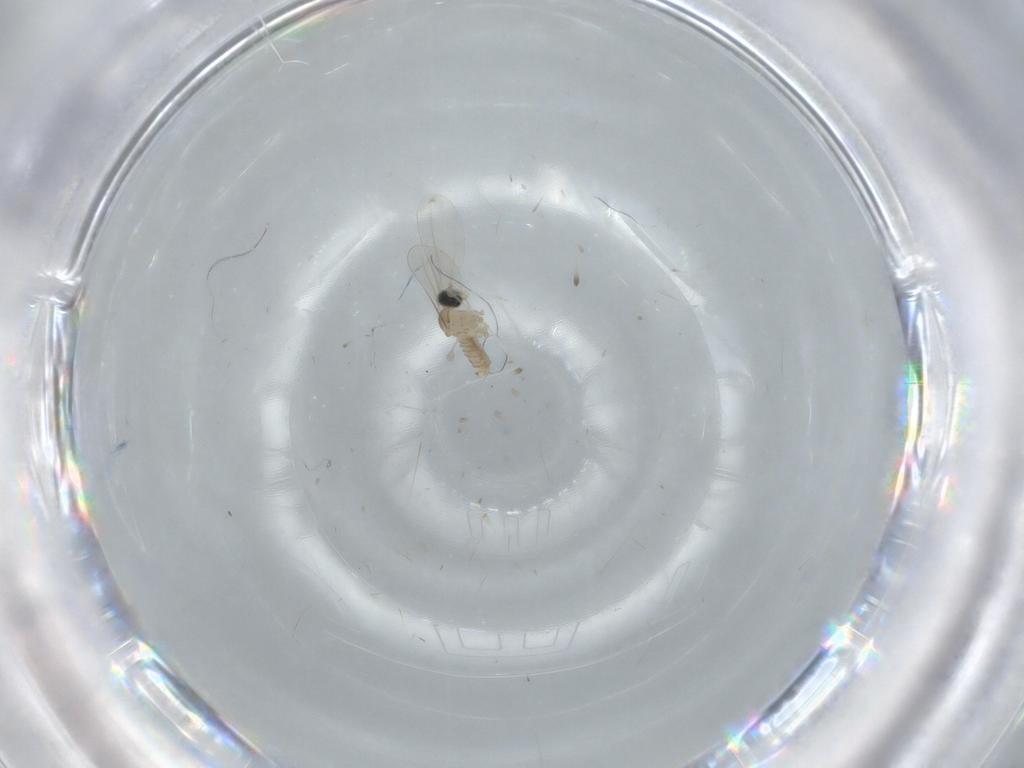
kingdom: Animalia
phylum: Arthropoda
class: Insecta
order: Diptera
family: Cecidomyiidae
